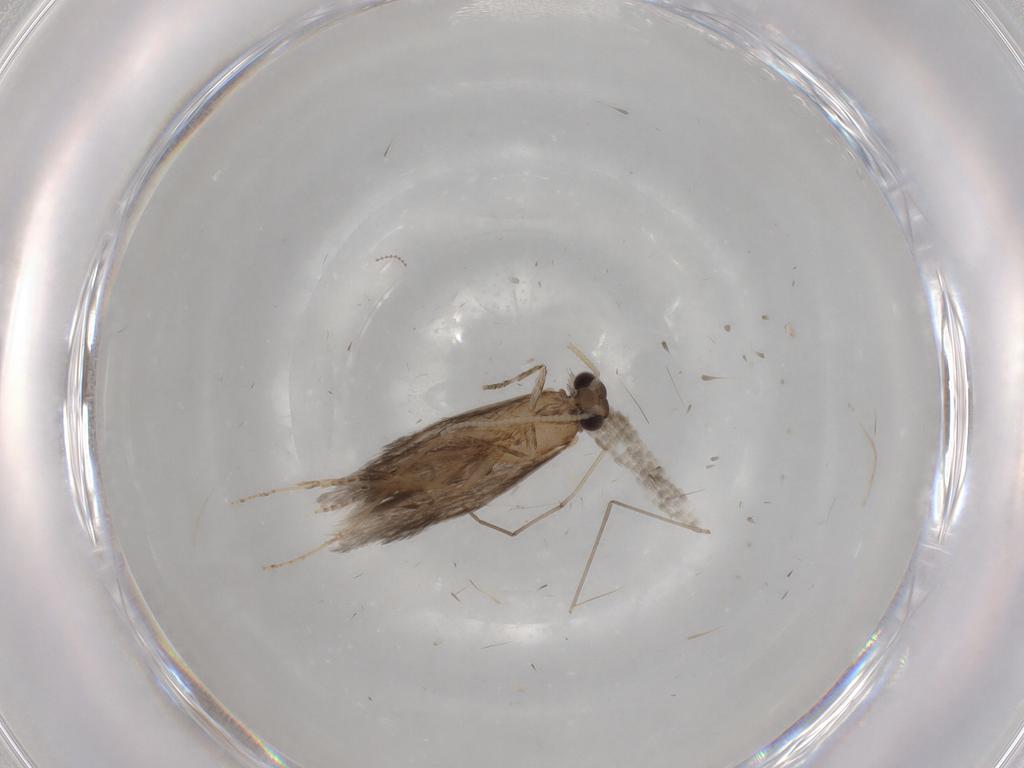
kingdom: Animalia
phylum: Arthropoda
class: Insecta
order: Trichoptera
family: Hydroptilidae
